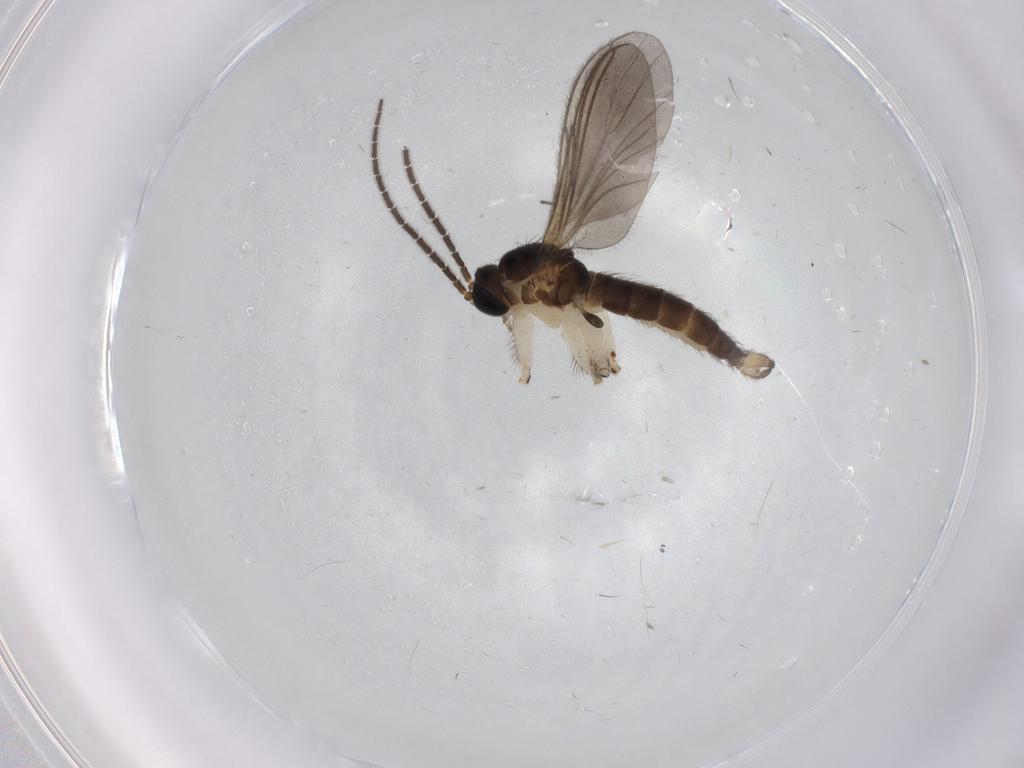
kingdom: Animalia
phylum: Arthropoda
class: Insecta
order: Diptera
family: Sciaridae
